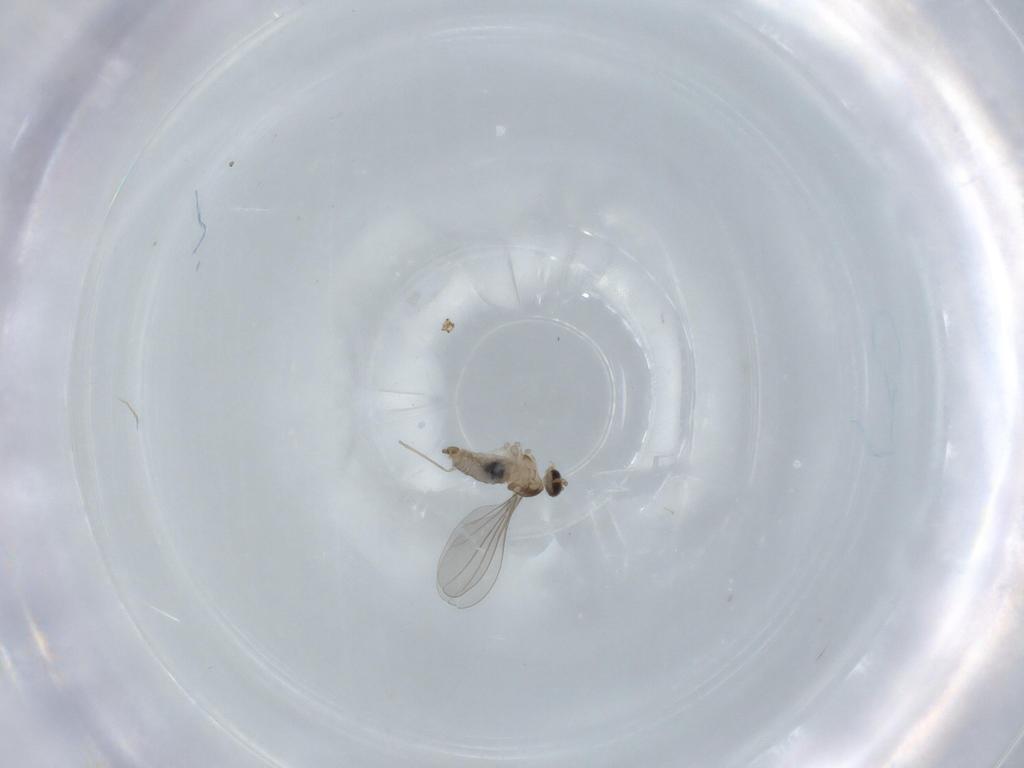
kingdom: Animalia
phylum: Arthropoda
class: Insecta
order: Diptera
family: Cecidomyiidae
